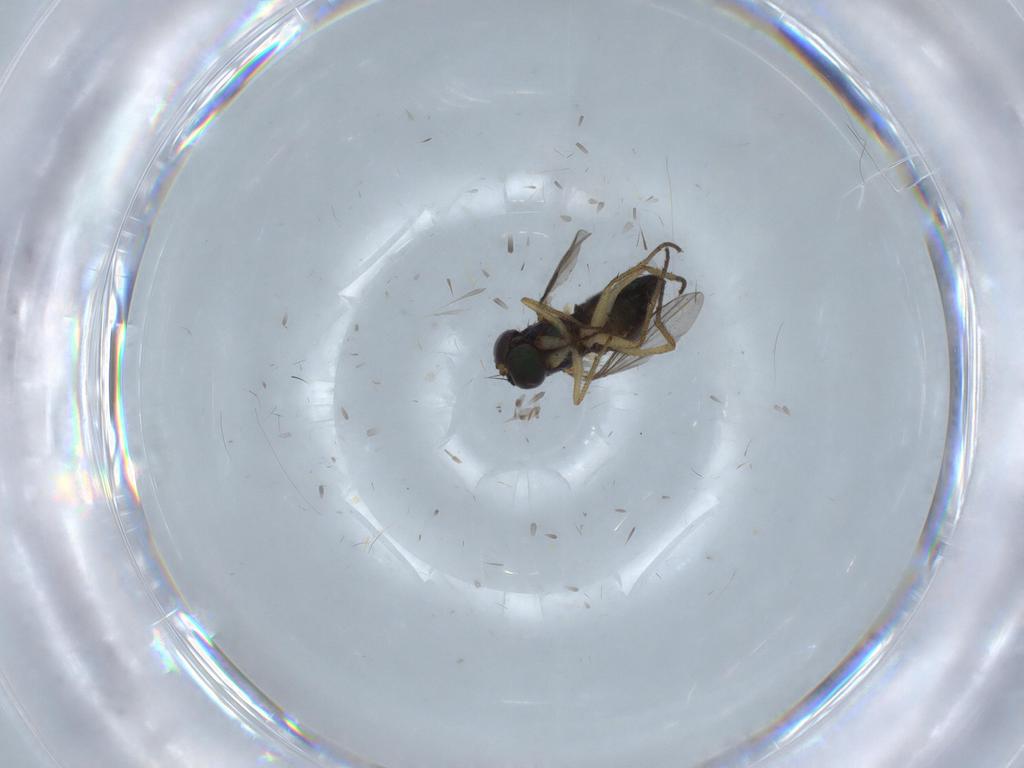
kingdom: Animalia
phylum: Arthropoda
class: Insecta
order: Diptera
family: Dolichopodidae
